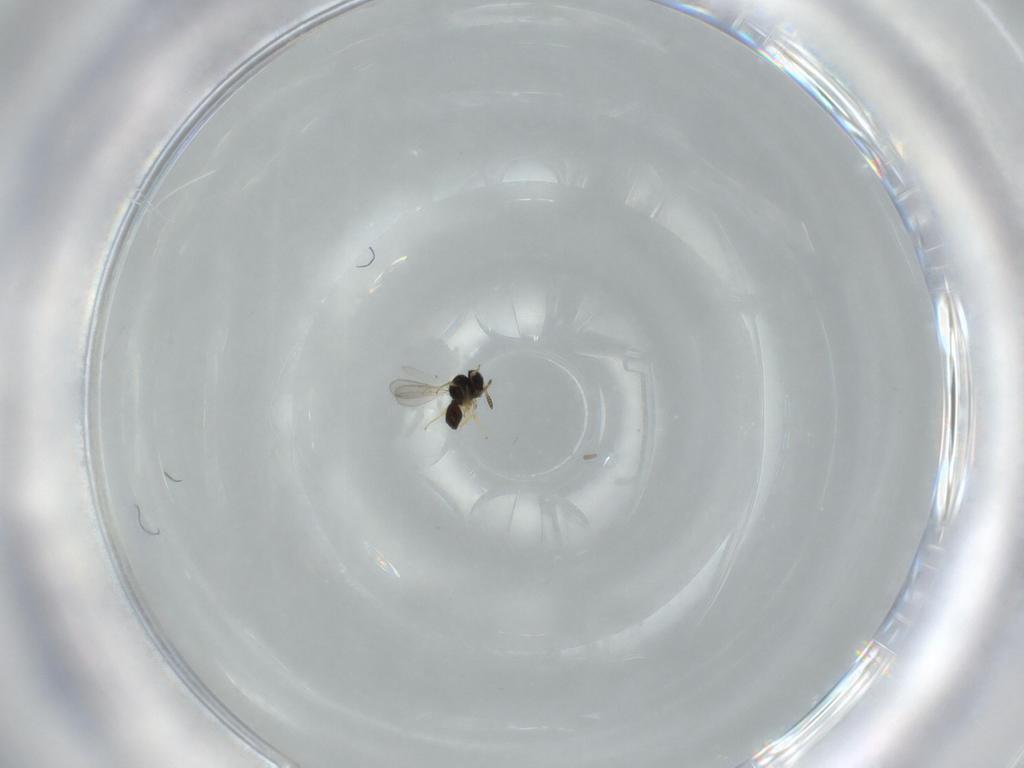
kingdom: Animalia
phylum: Arthropoda
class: Insecta
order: Hymenoptera
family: Scelionidae
